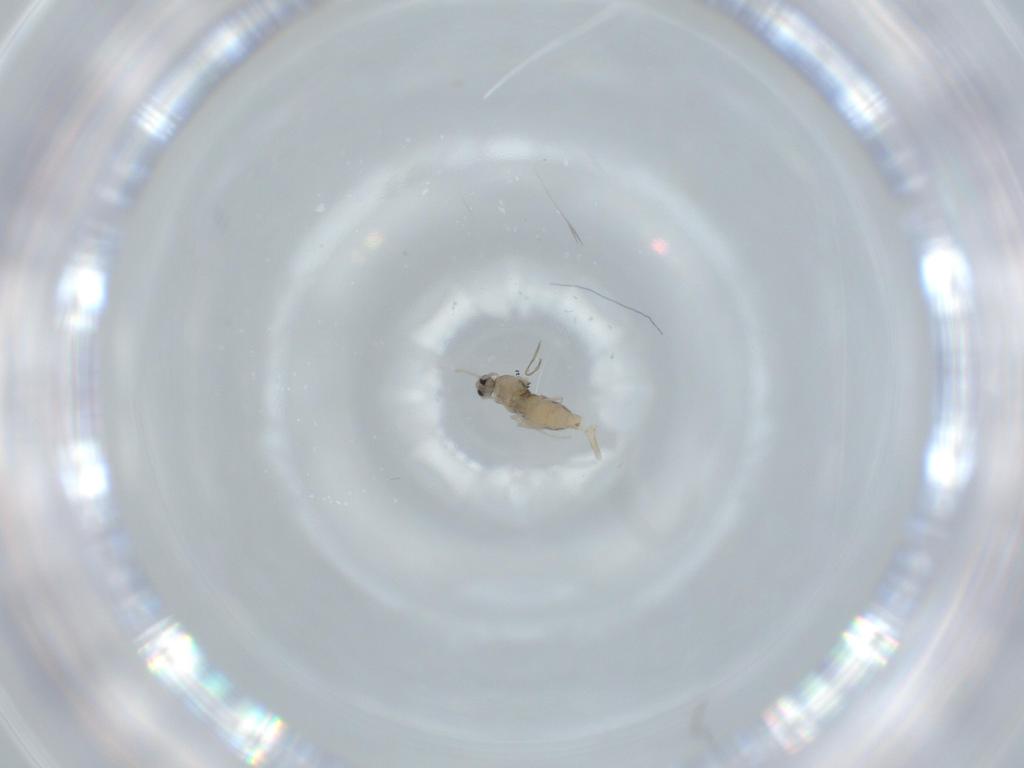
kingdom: Animalia
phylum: Arthropoda
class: Insecta
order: Diptera
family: Cecidomyiidae
